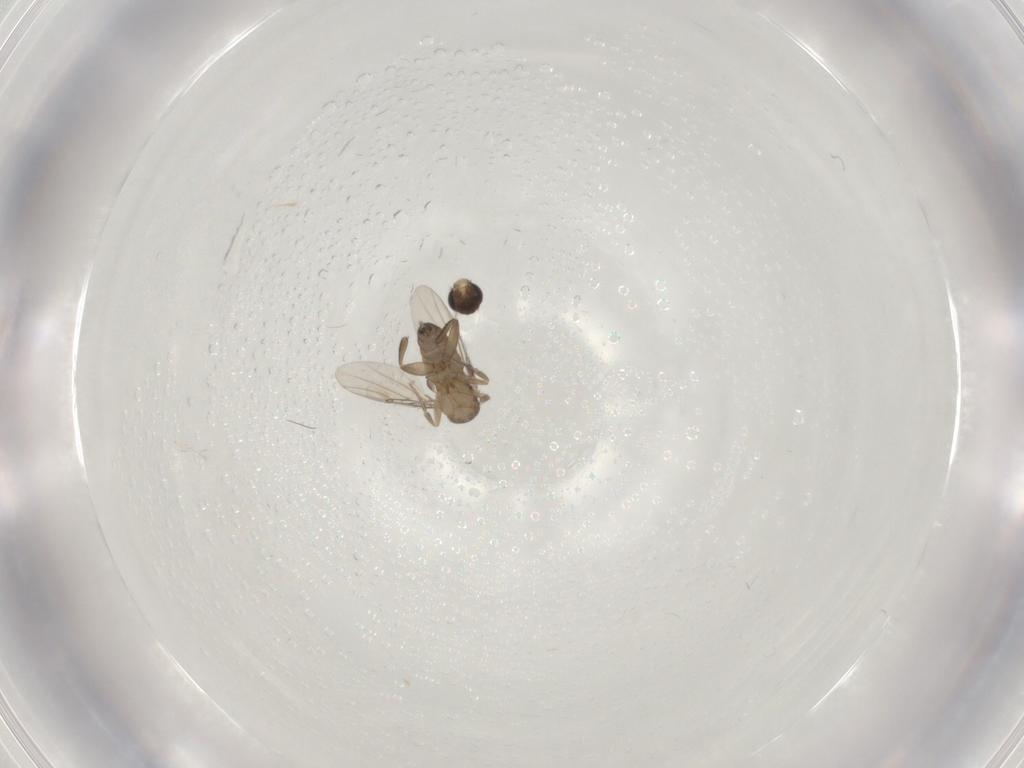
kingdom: Animalia
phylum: Arthropoda
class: Insecta
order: Diptera
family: Phoridae
